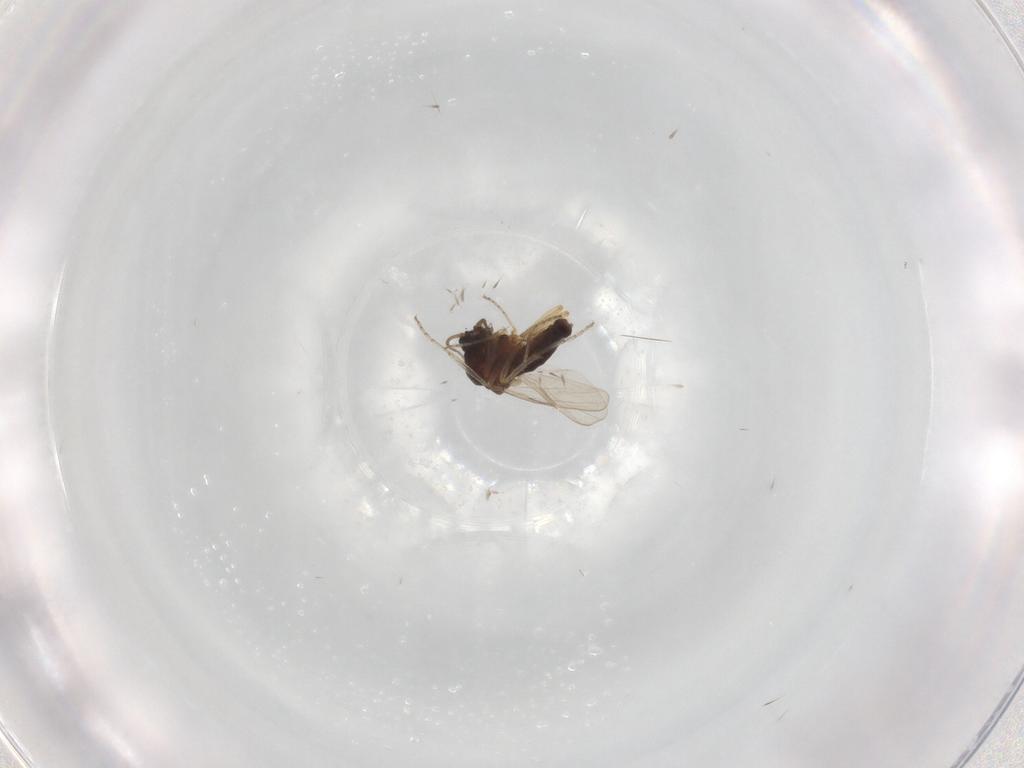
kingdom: Animalia
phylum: Arthropoda
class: Insecta
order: Diptera
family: Ceratopogonidae
